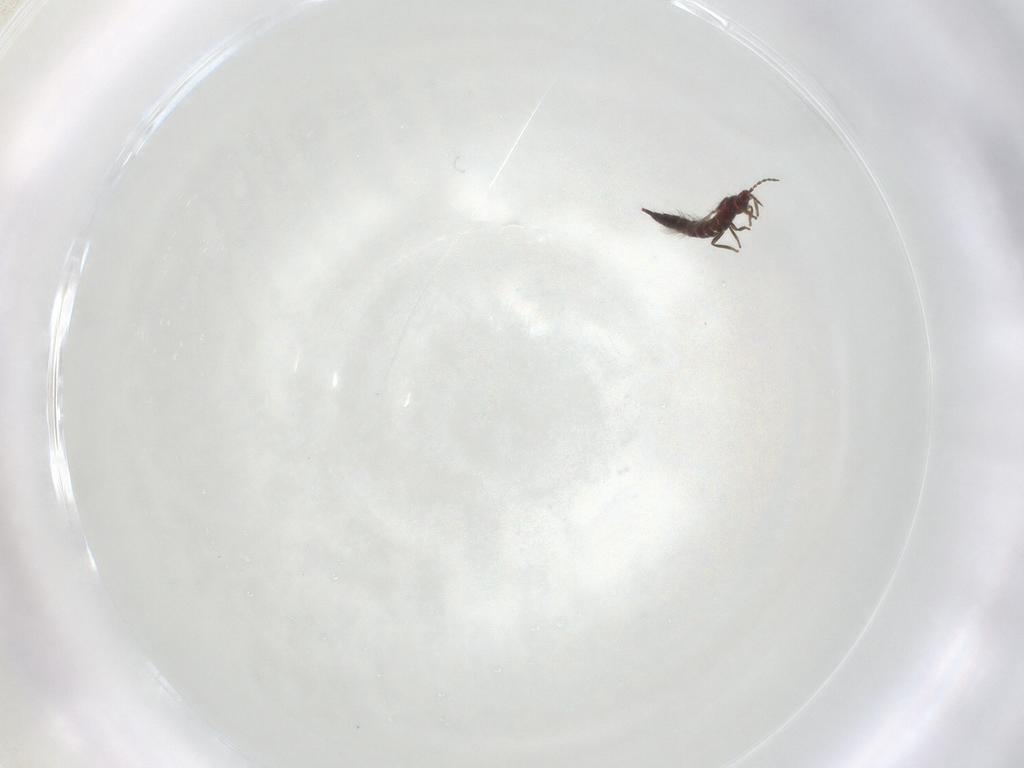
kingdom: Animalia
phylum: Arthropoda
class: Insecta
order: Thysanoptera
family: Phlaeothripidae
